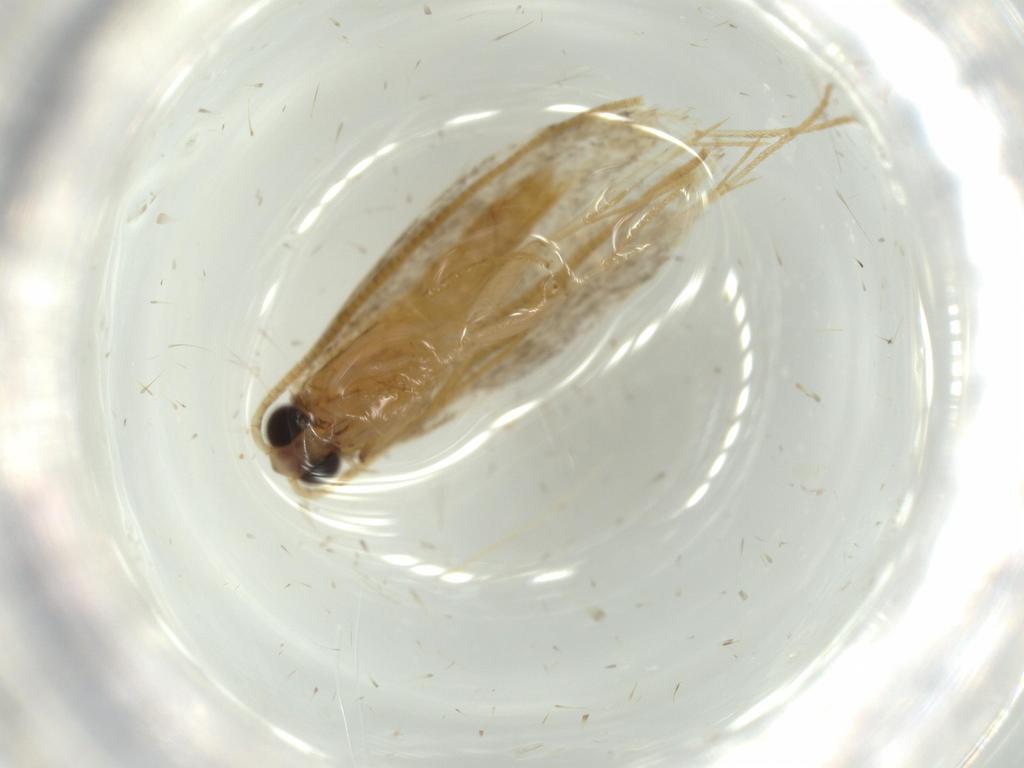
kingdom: Animalia
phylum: Arthropoda
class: Insecta
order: Lepidoptera
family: Tineidae
